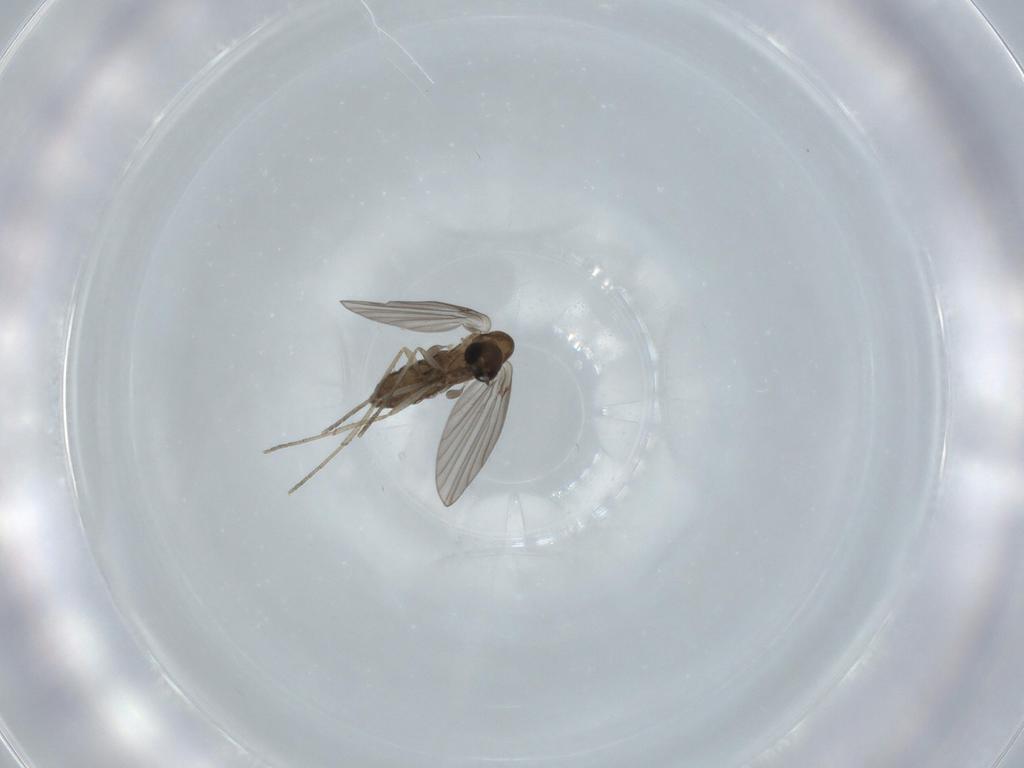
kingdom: Animalia
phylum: Arthropoda
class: Insecta
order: Diptera
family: Psychodidae
